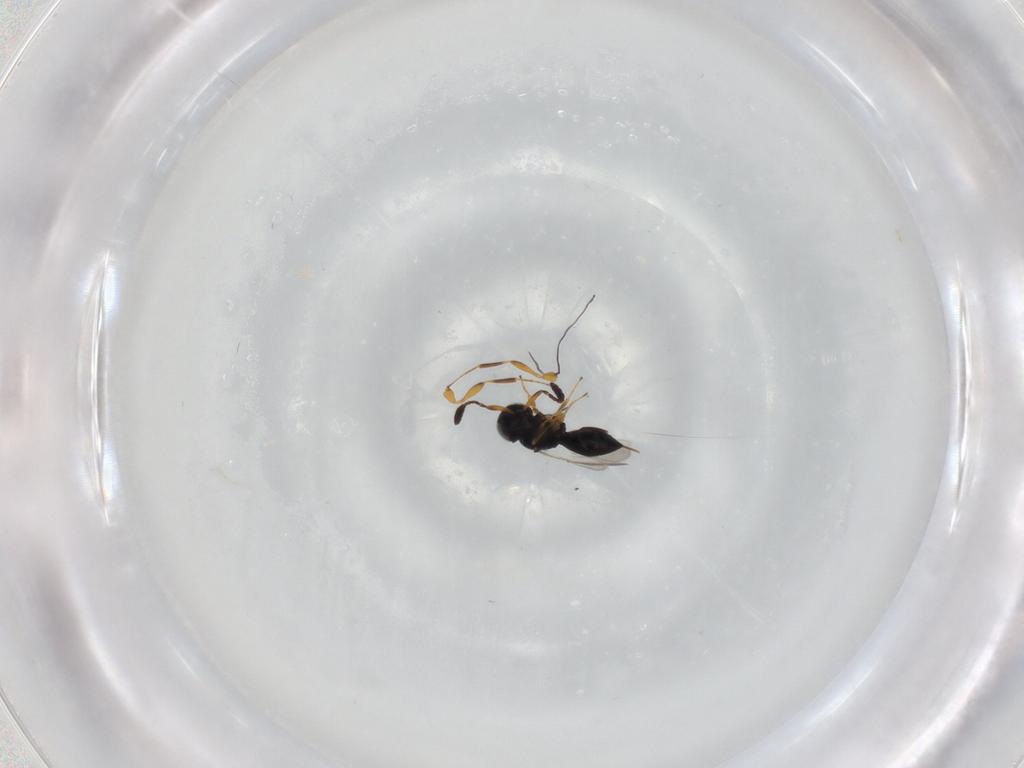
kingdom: Animalia
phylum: Arthropoda
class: Insecta
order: Hymenoptera
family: Scelionidae
